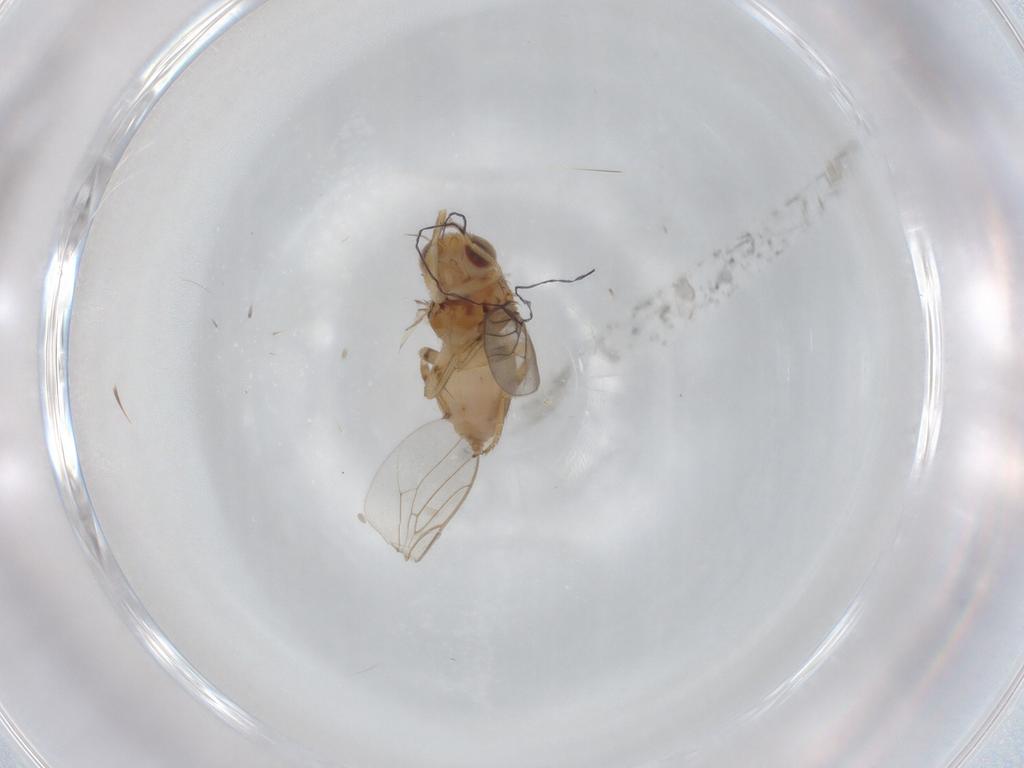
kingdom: Animalia
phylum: Arthropoda
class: Insecta
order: Diptera
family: Chloropidae
